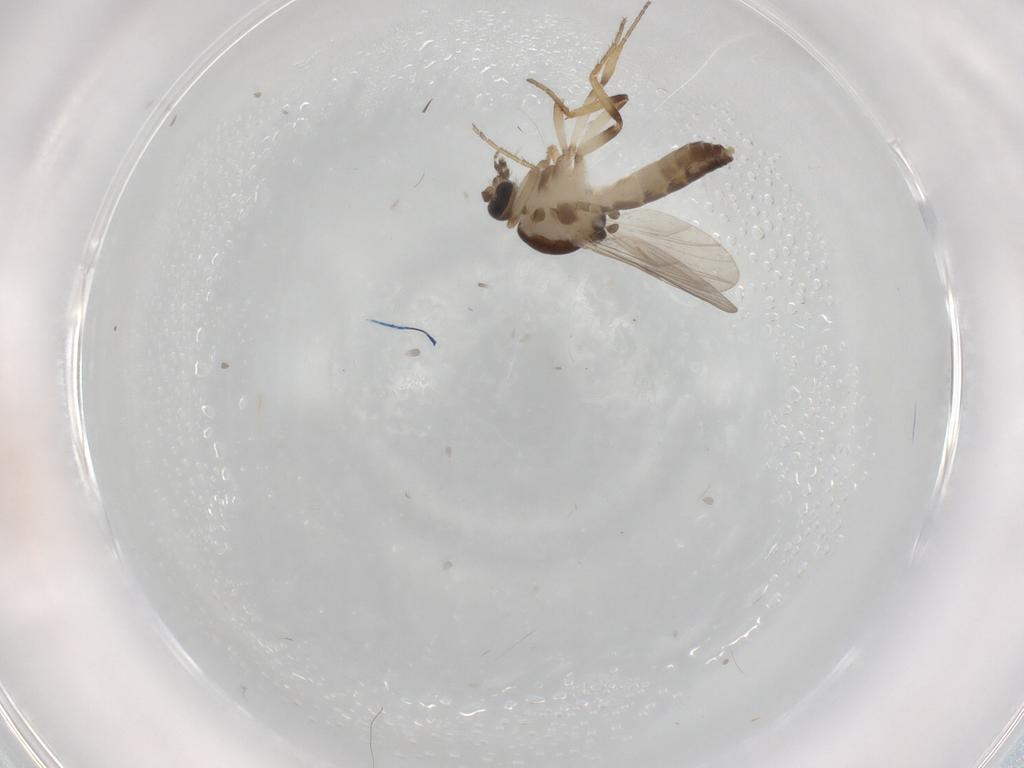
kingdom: Animalia
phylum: Arthropoda
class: Insecta
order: Diptera
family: Ceratopogonidae
